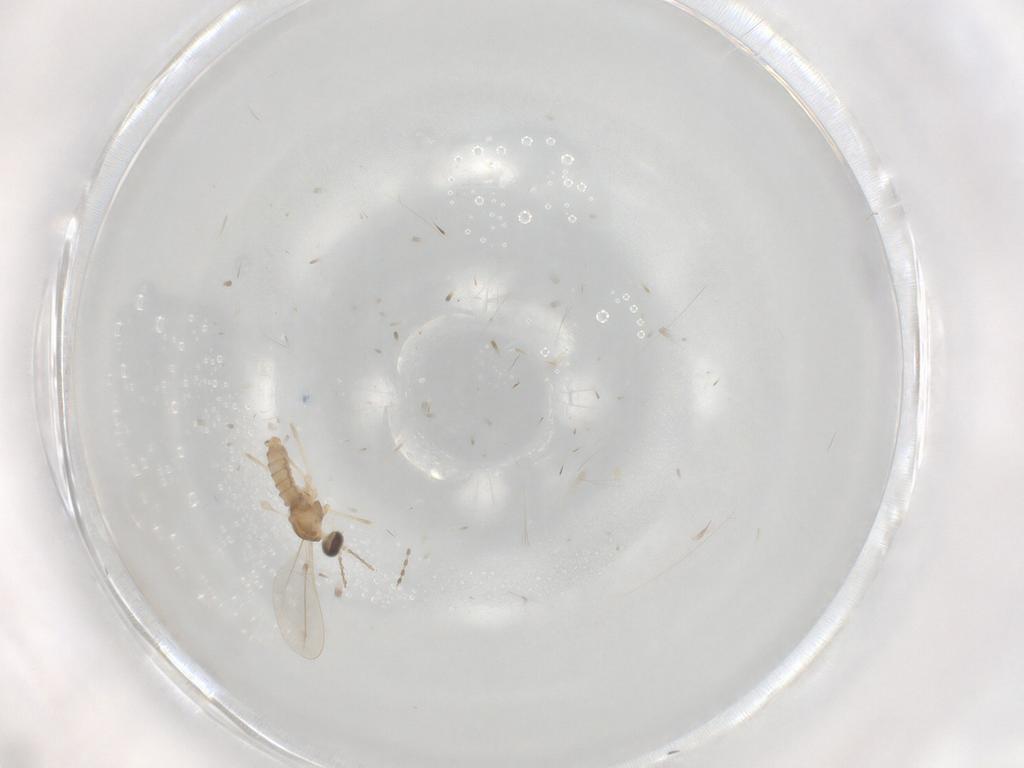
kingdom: Animalia
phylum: Arthropoda
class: Insecta
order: Diptera
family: Cecidomyiidae
